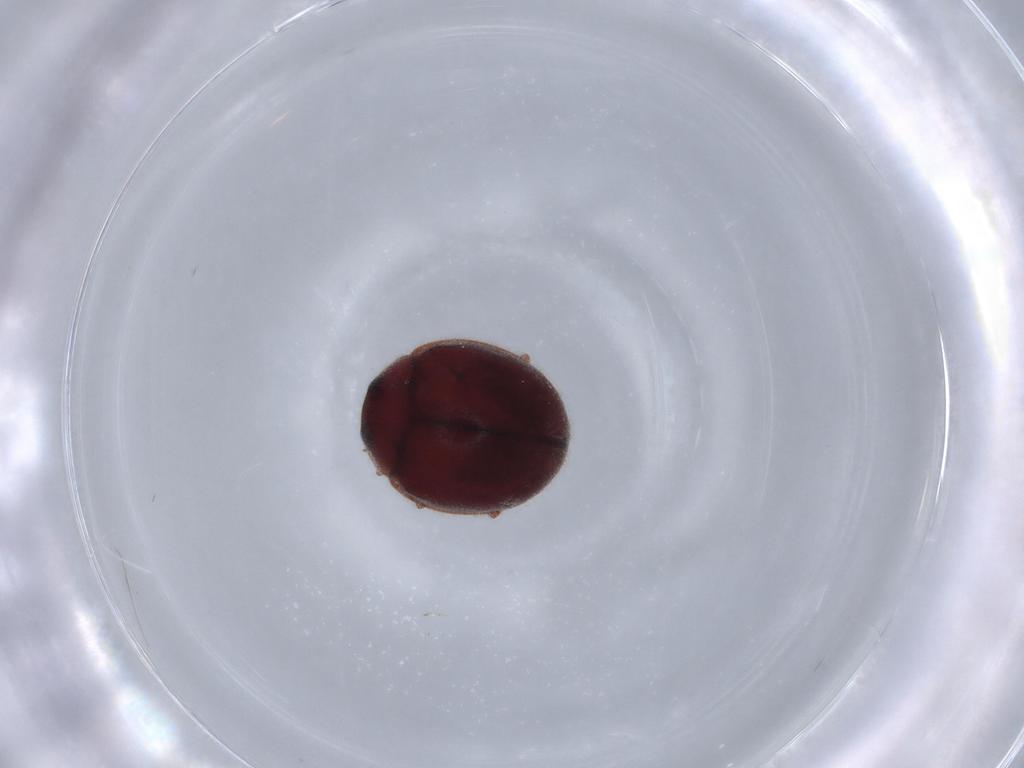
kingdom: Animalia
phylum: Arthropoda
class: Insecta
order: Coleoptera
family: Coccinellidae
